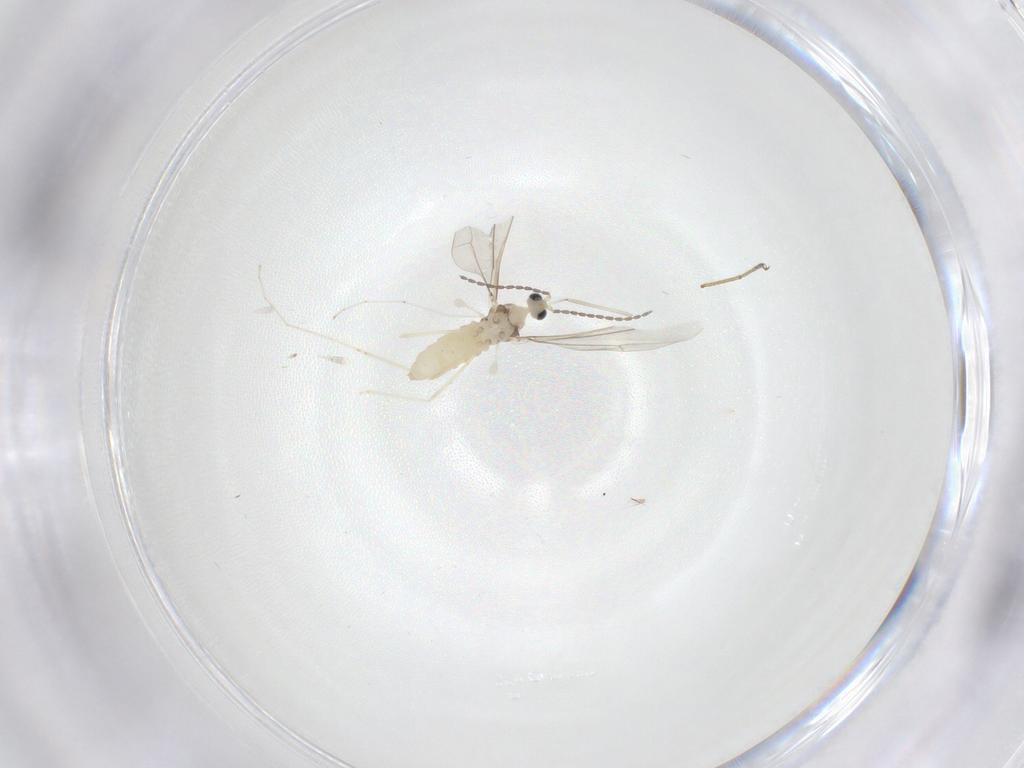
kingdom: Animalia
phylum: Arthropoda
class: Insecta
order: Diptera
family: Cecidomyiidae
